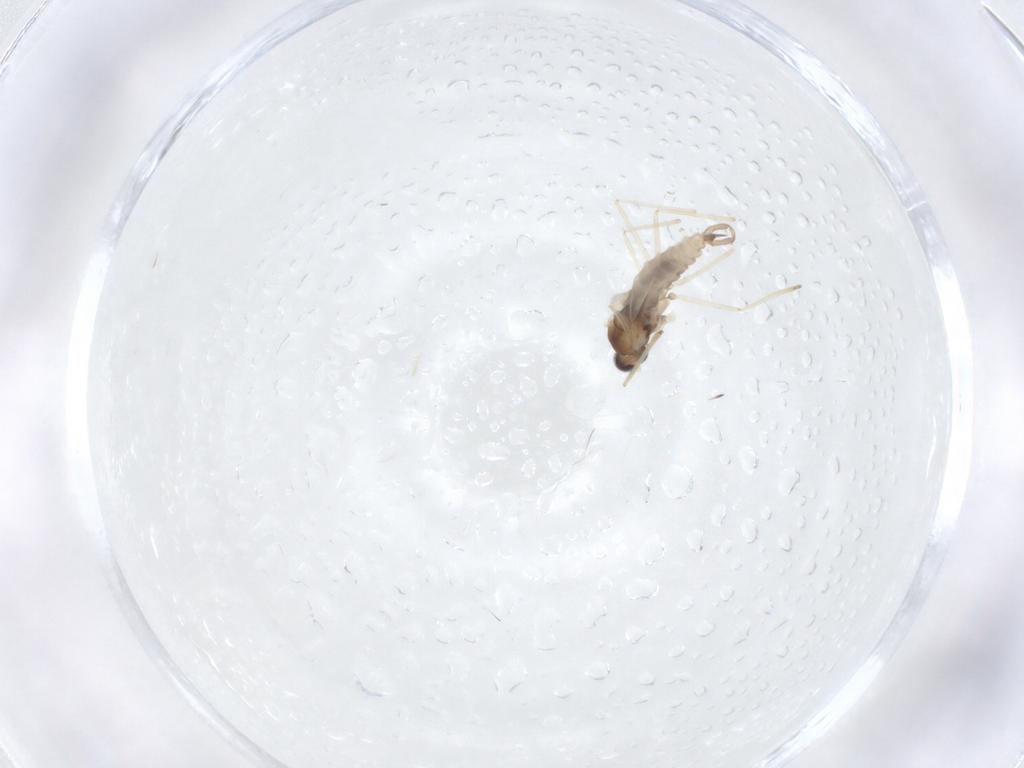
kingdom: Animalia
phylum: Arthropoda
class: Insecta
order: Diptera
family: Cecidomyiidae
